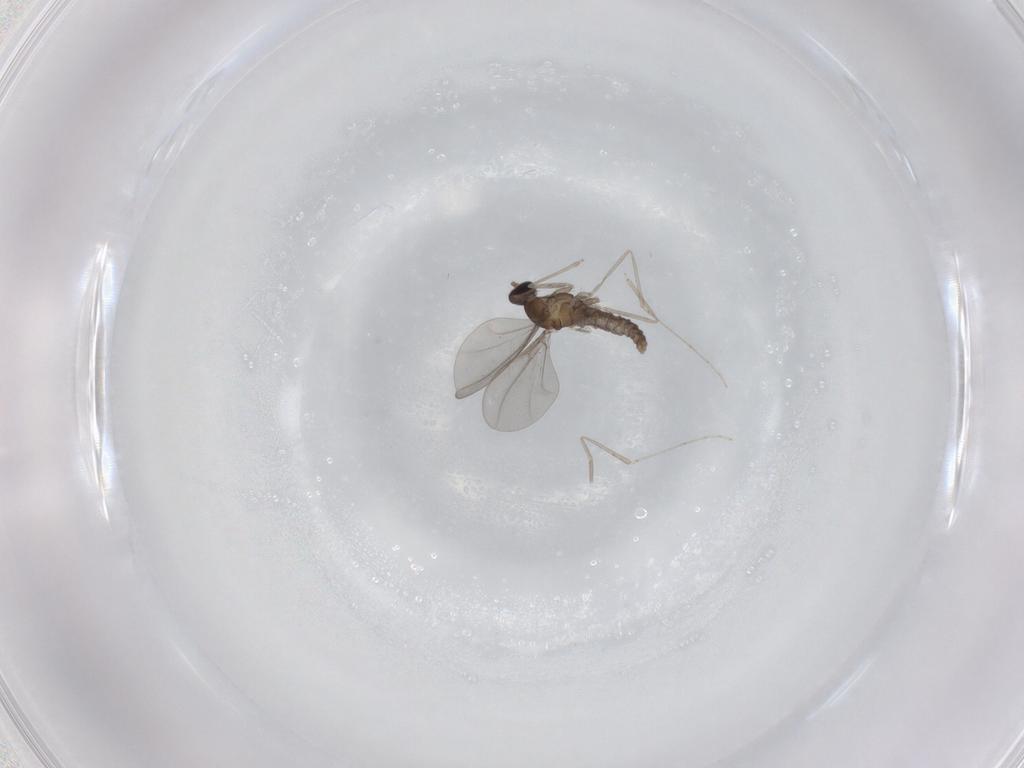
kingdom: Animalia
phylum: Arthropoda
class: Insecta
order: Diptera
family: Cecidomyiidae
